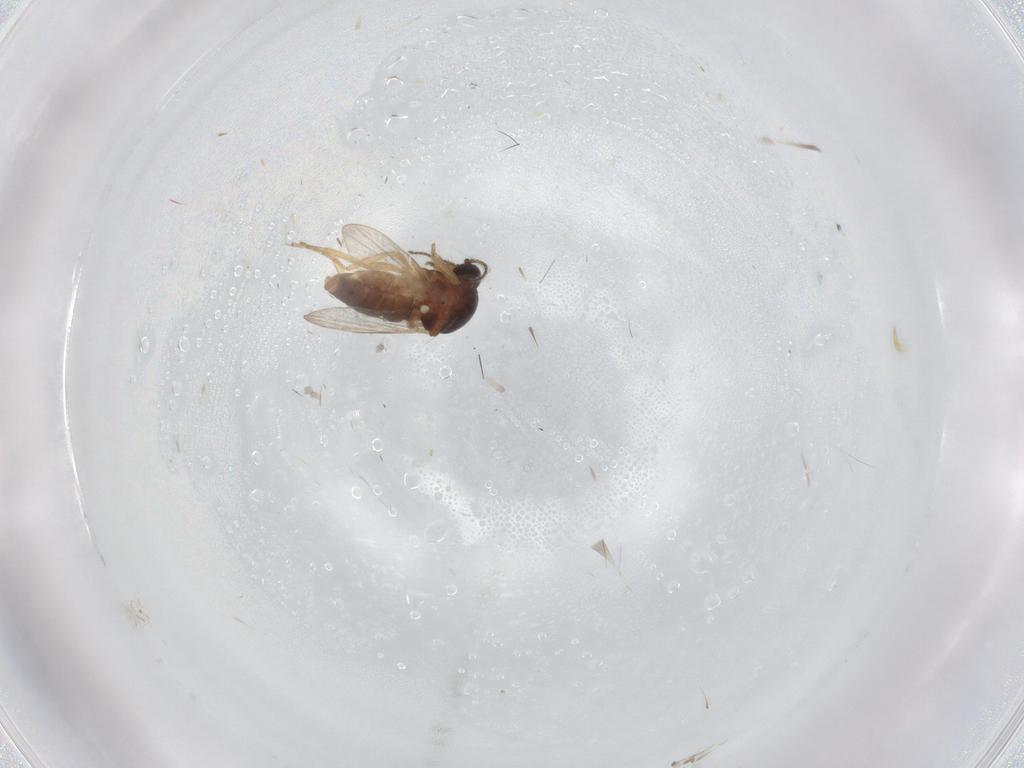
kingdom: Animalia
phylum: Arthropoda
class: Insecta
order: Diptera
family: Ceratopogonidae
